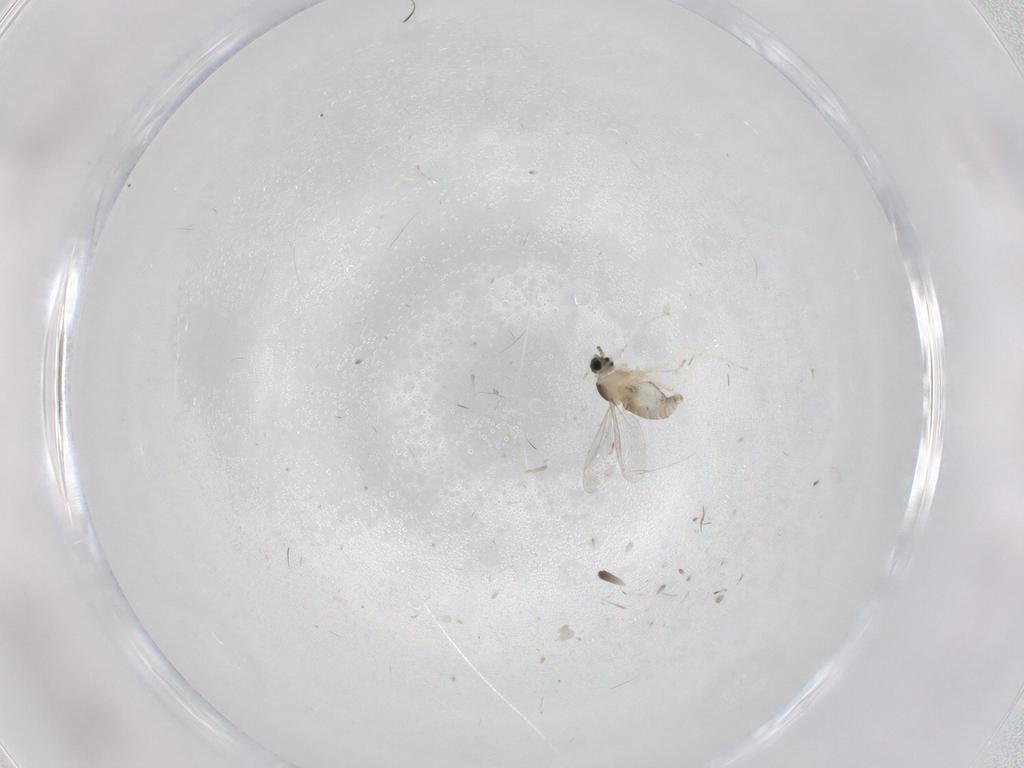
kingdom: Animalia
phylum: Arthropoda
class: Insecta
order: Diptera
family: Cecidomyiidae
